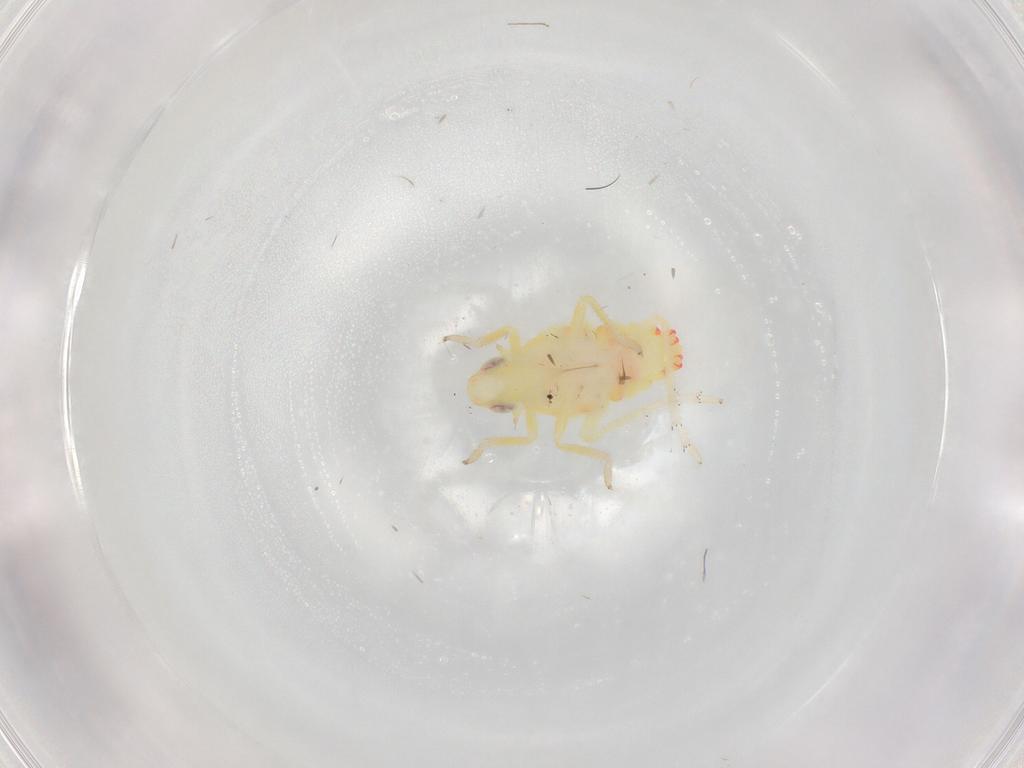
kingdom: Animalia
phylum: Arthropoda
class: Insecta
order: Hemiptera
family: Tropiduchidae
